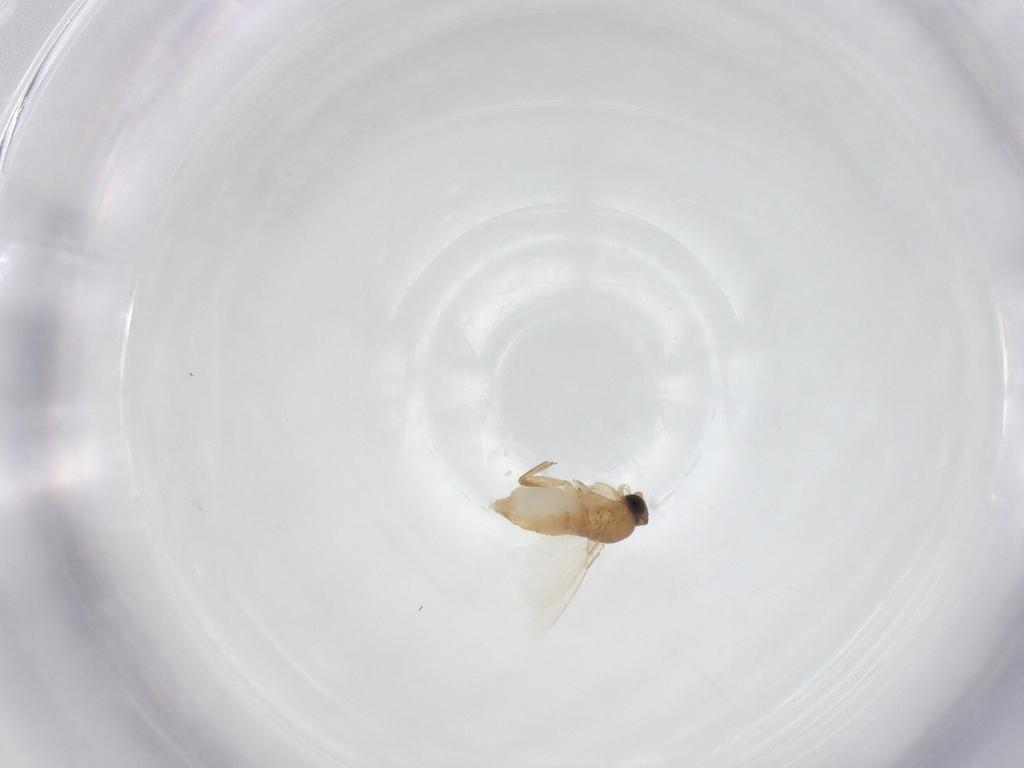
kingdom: Animalia
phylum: Arthropoda
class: Insecta
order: Diptera
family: Phoridae
